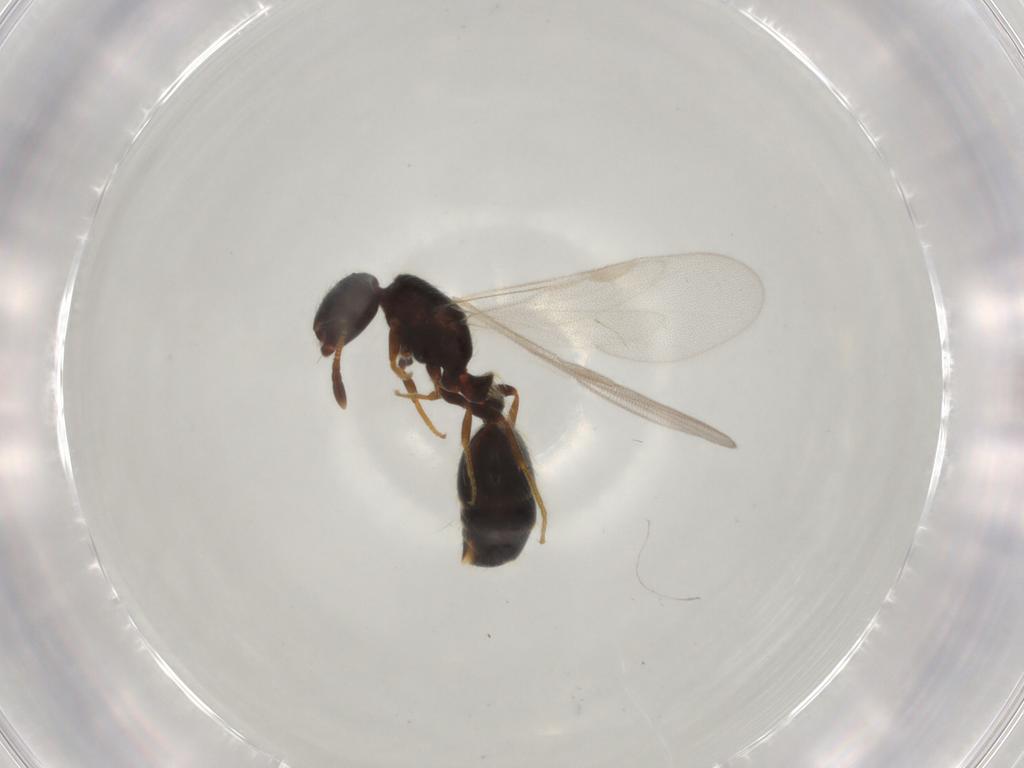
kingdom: Animalia
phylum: Arthropoda
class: Insecta
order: Hymenoptera
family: Formicidae
